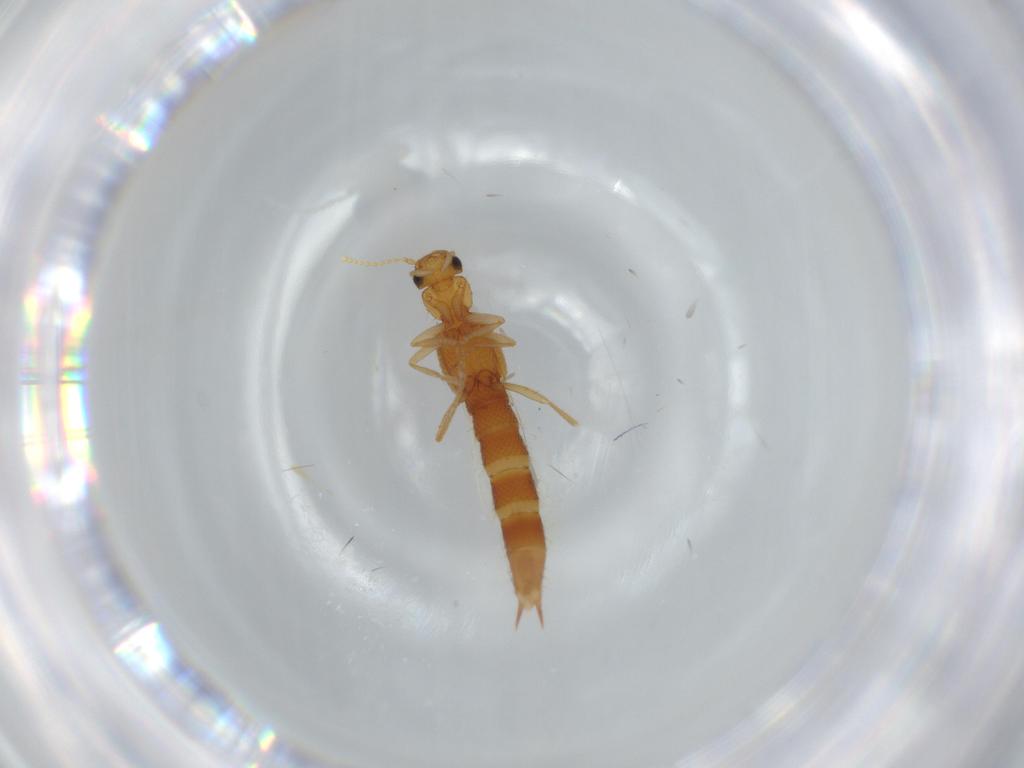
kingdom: Animalia
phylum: Arthropoda
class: Insecta
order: Coleoptera
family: Staphylinidae
